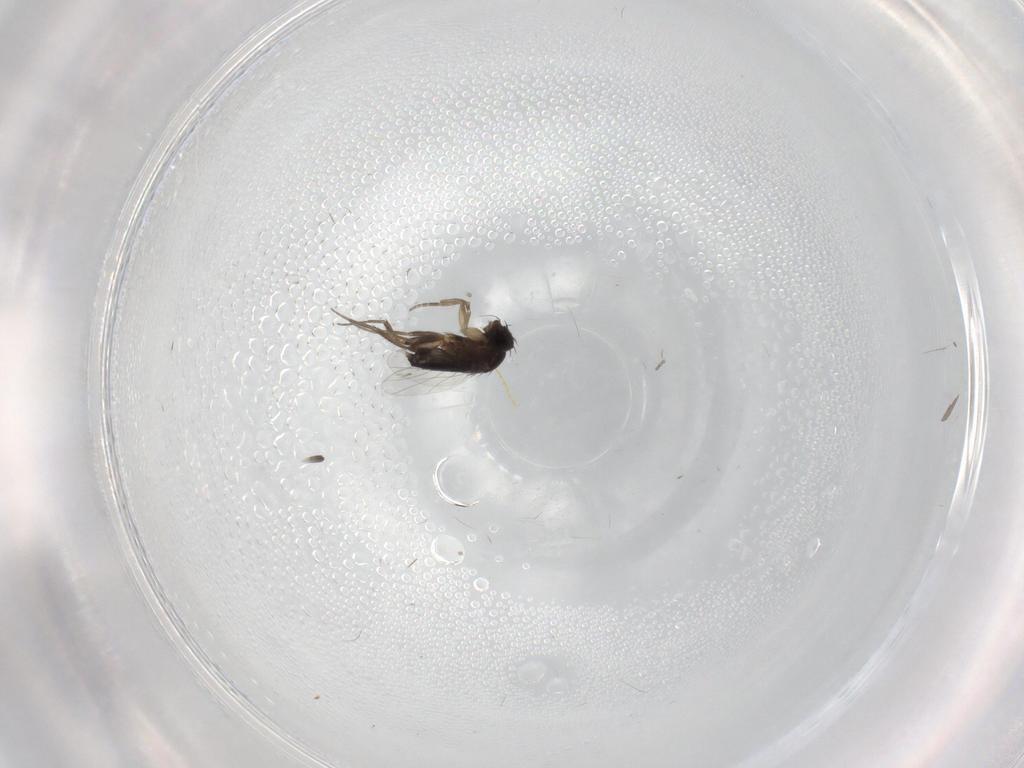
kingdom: Animalia
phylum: Arthropoda
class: Insecta
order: Diptera
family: Phoridae
